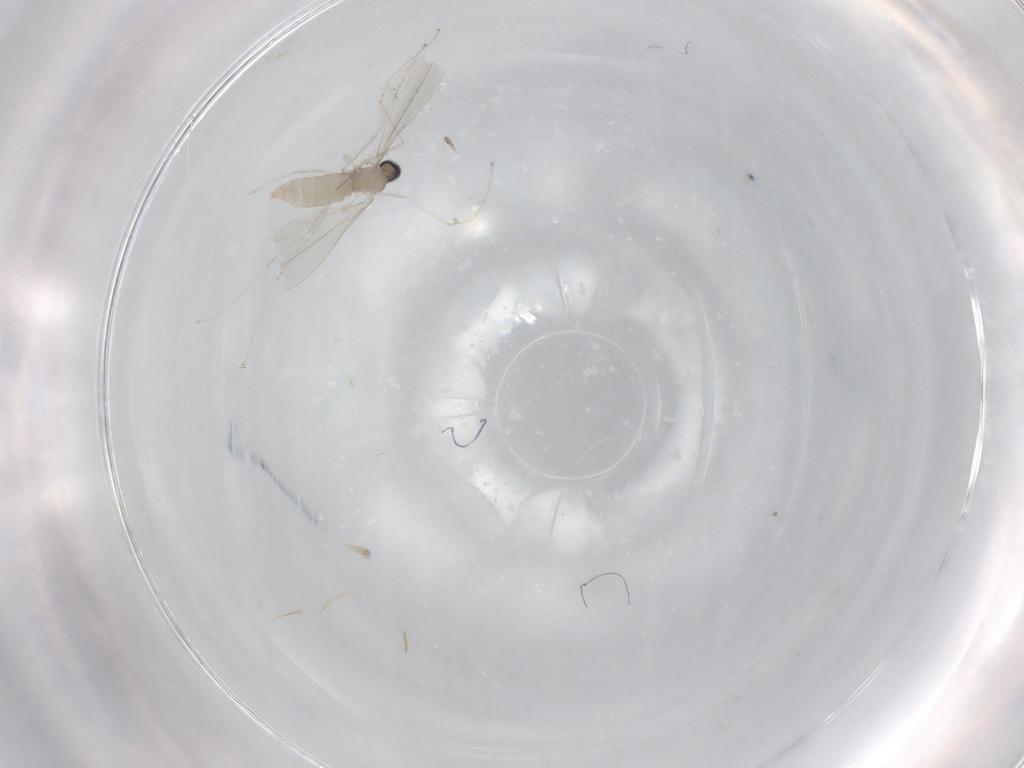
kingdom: Animalia
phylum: Arthropoda
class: Insecta
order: Diptera
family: Cecidomyiidae
